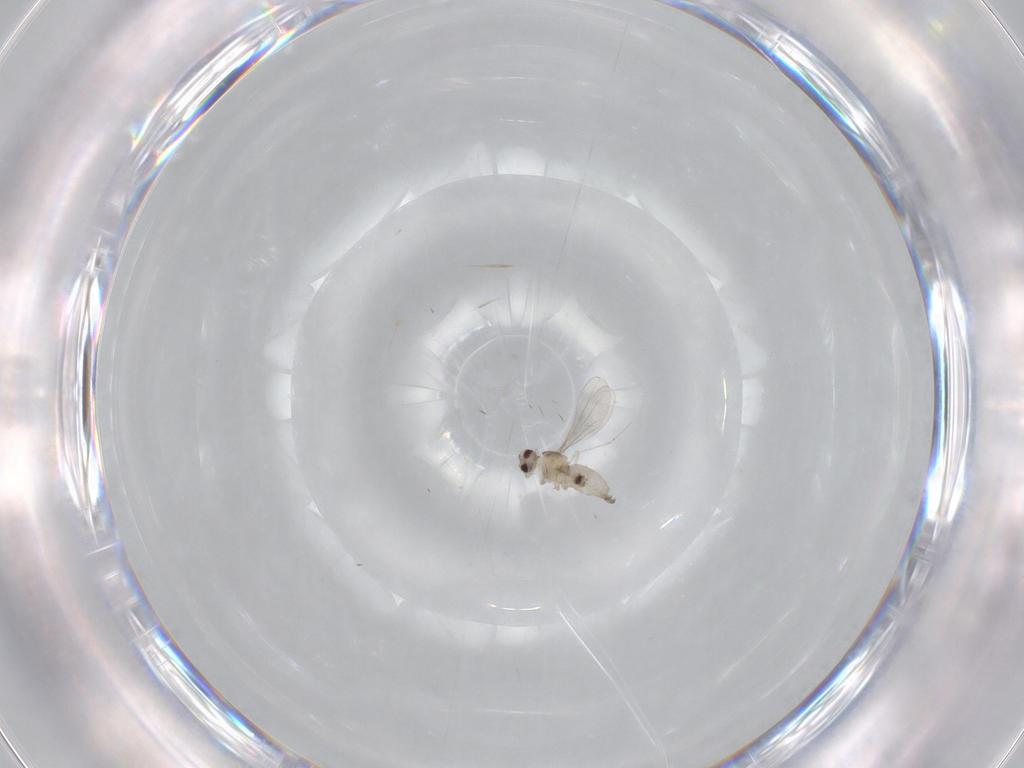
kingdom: Animalia
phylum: Arthropoda
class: Insecta
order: Diptera
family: Cecidomyiidae
